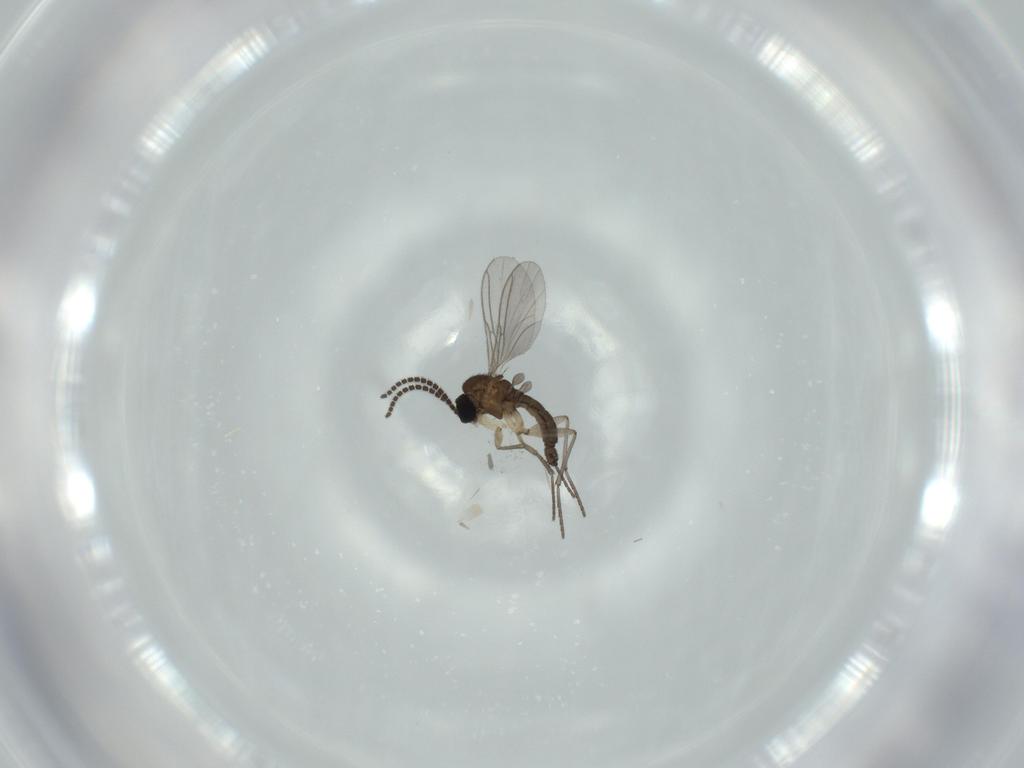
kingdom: Animalia
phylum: Arthropoda
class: Insecta
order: Diptera
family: Sciaridae
